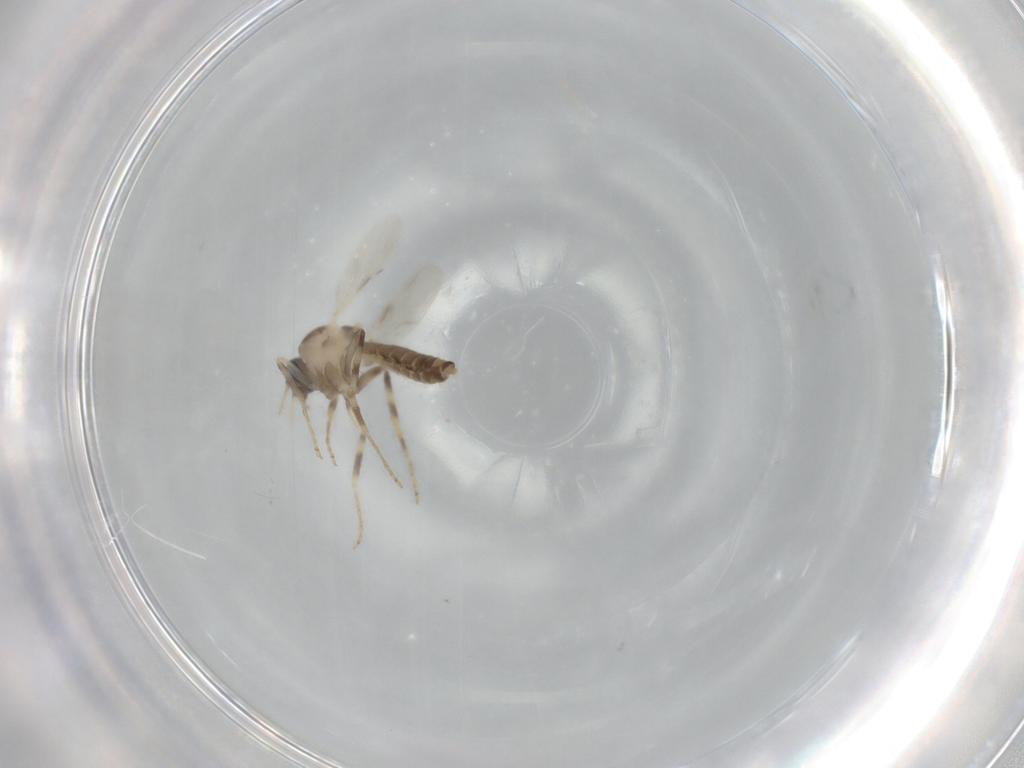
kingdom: Animalia
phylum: Arthropoda
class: Insecta
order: Diptera
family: Ceratopogonidae
